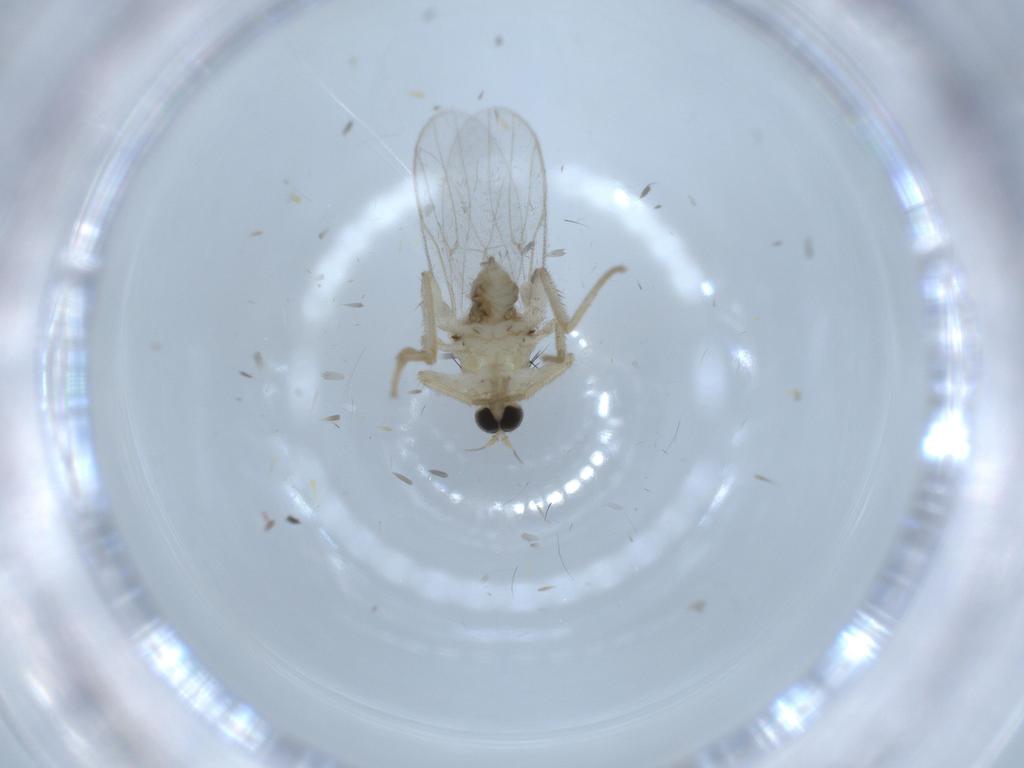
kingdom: Animalia
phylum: Arthropoda
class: Insecta
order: Diptera
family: Hybotidae
